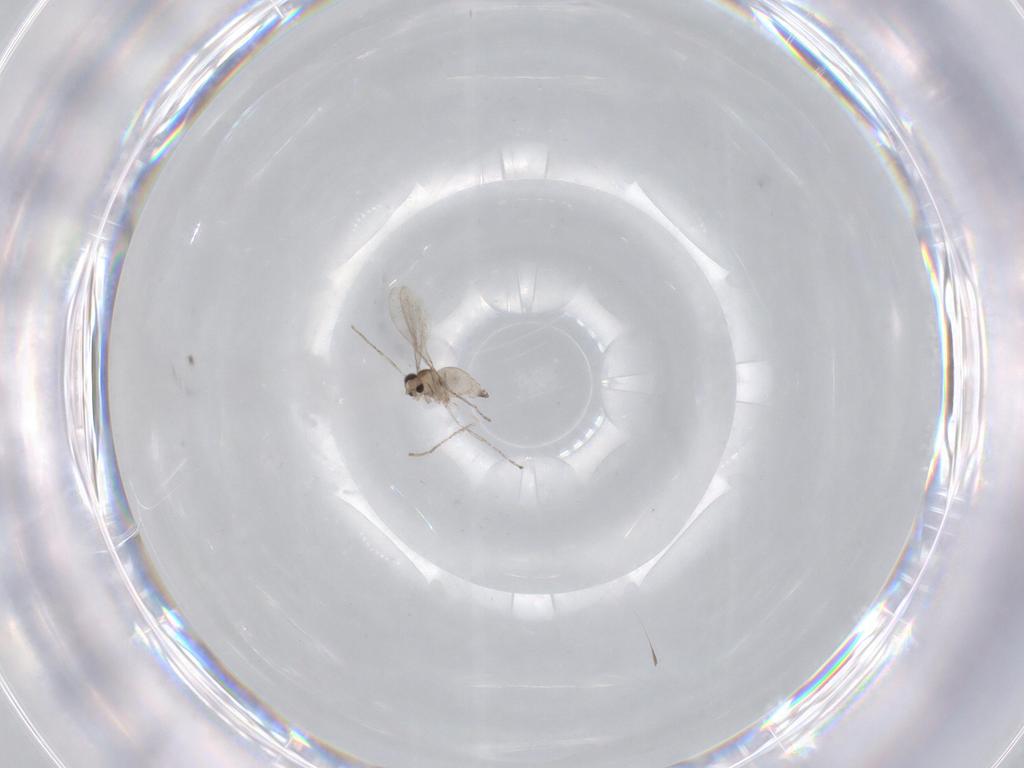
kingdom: Animalia
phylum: Arthropoda
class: Insecta
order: Diptera
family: Cecidomyiidae
